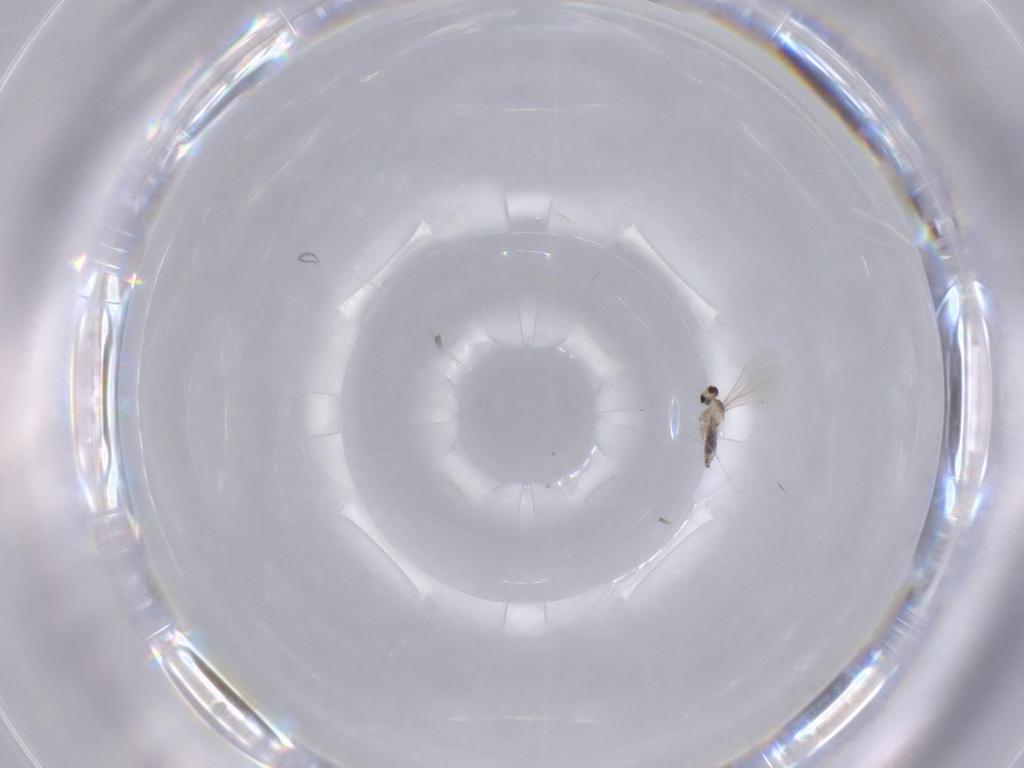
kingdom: Animalia
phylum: Arthropoda
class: Insecta
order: Diptera
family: Cecidomyiidae
